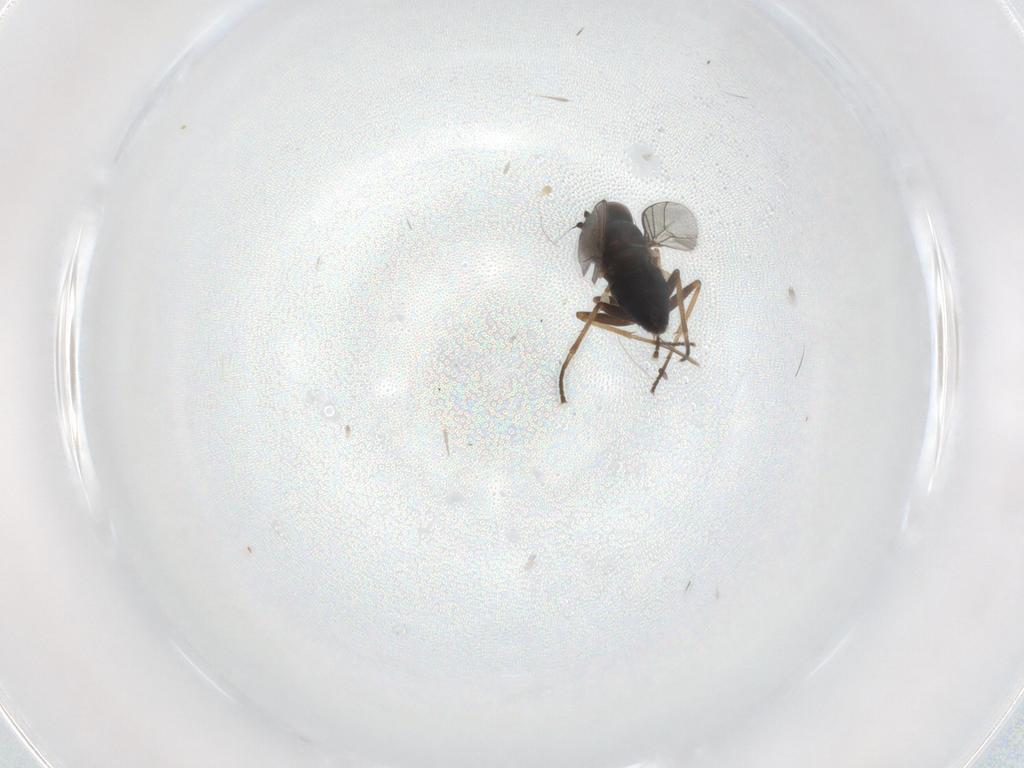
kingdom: Animalia
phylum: Arthropoda
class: Insecta
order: Diptera
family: Dolichopodidae
